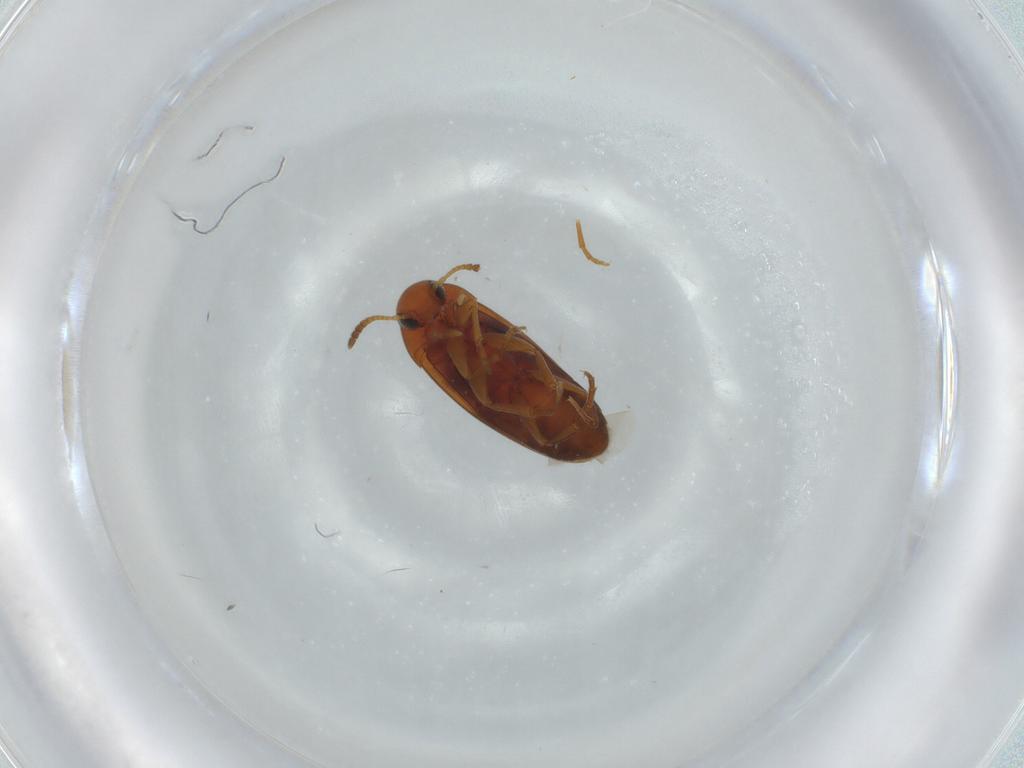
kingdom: Animalia
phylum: Arthropoda
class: Insecta
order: Coleoptera
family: Scraptiidae
